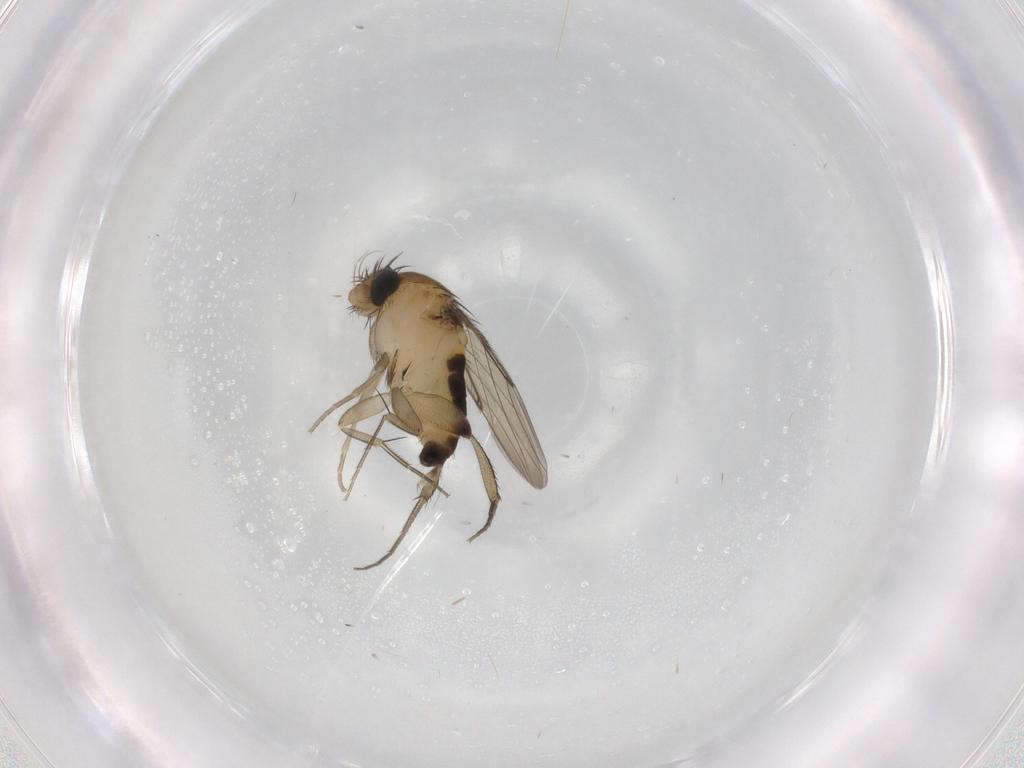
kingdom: Animalia
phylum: Arthropoda
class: Insecta
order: Diptera
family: Phoridae
